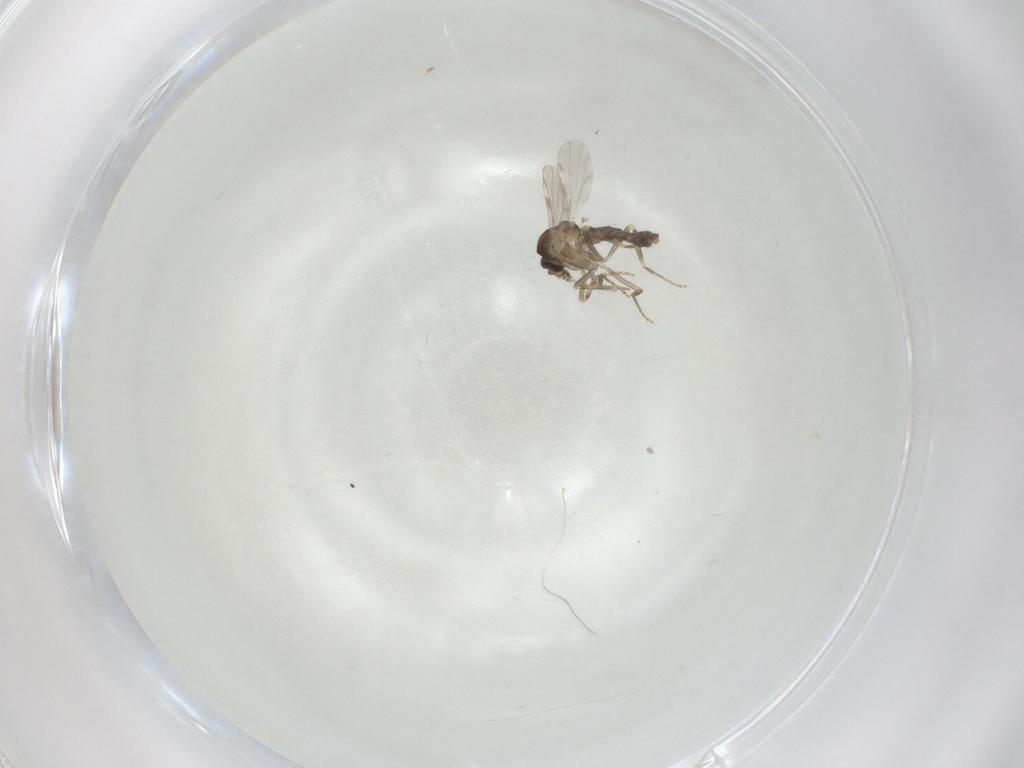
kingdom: Animalia
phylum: Arthropoda
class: Insecta
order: Diptera
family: Ceratopogonidae
